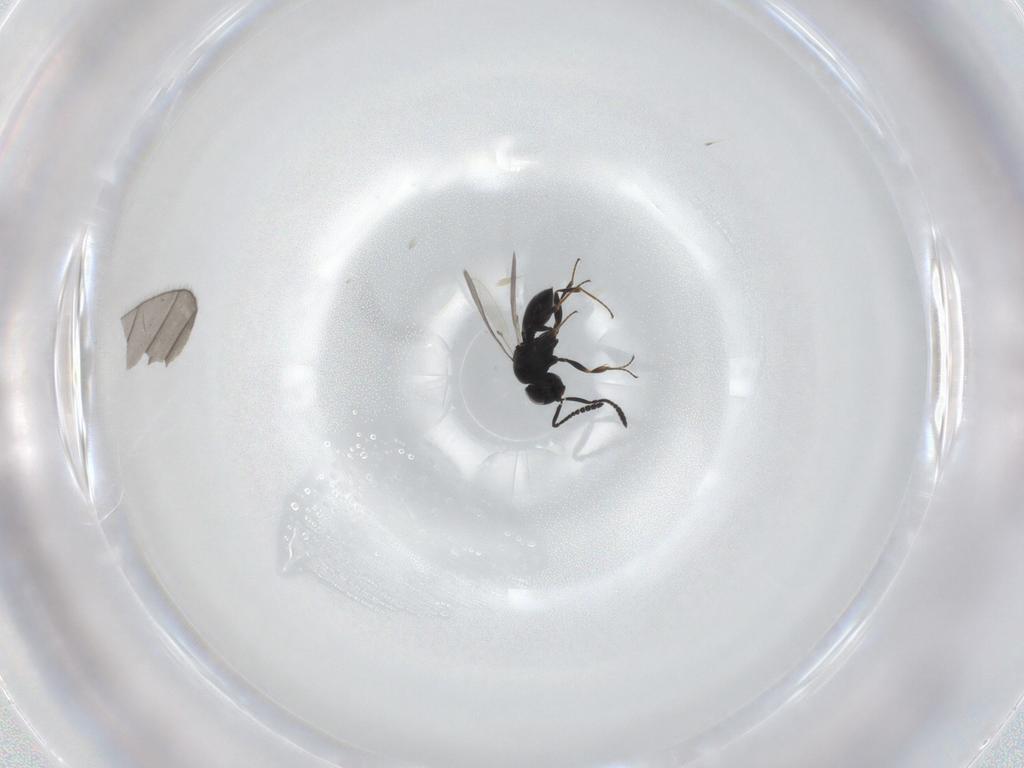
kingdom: Animalia
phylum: Arthropoda
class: Insecta
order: Hymenoptera
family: Scelionidae
